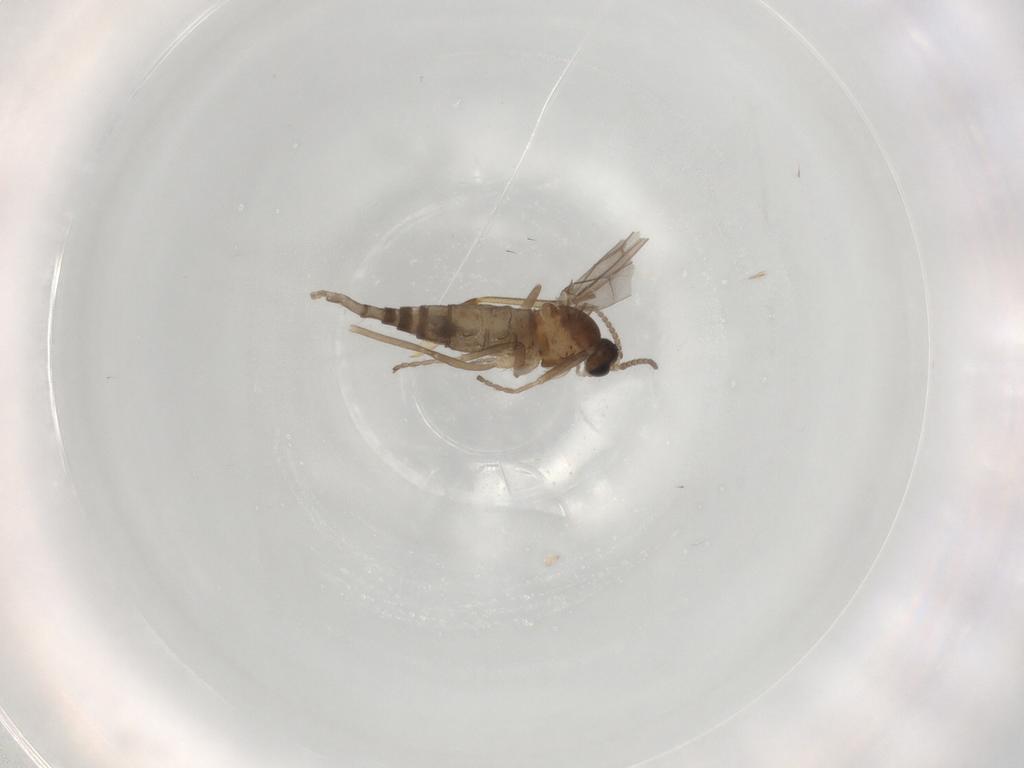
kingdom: Animalia
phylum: Arthropoda
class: Insecta
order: Diptera
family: Cecidomyiidae
